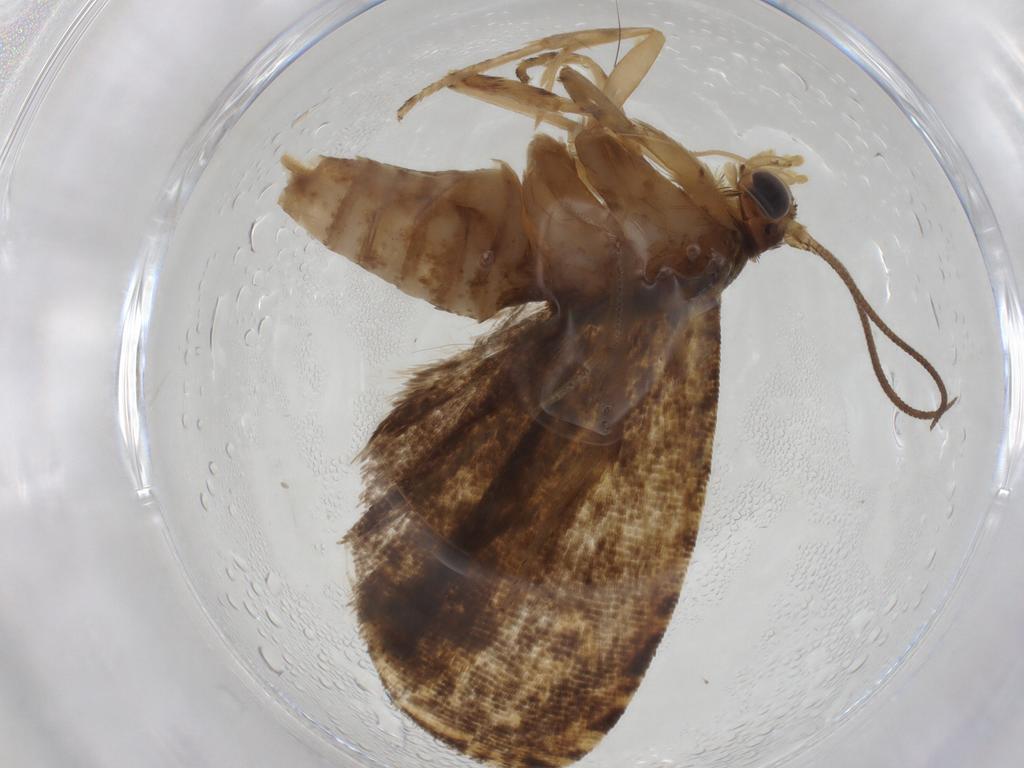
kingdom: Animalia
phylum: Arthropoda
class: Insecta
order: Lepidoptera
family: Tortricidae
